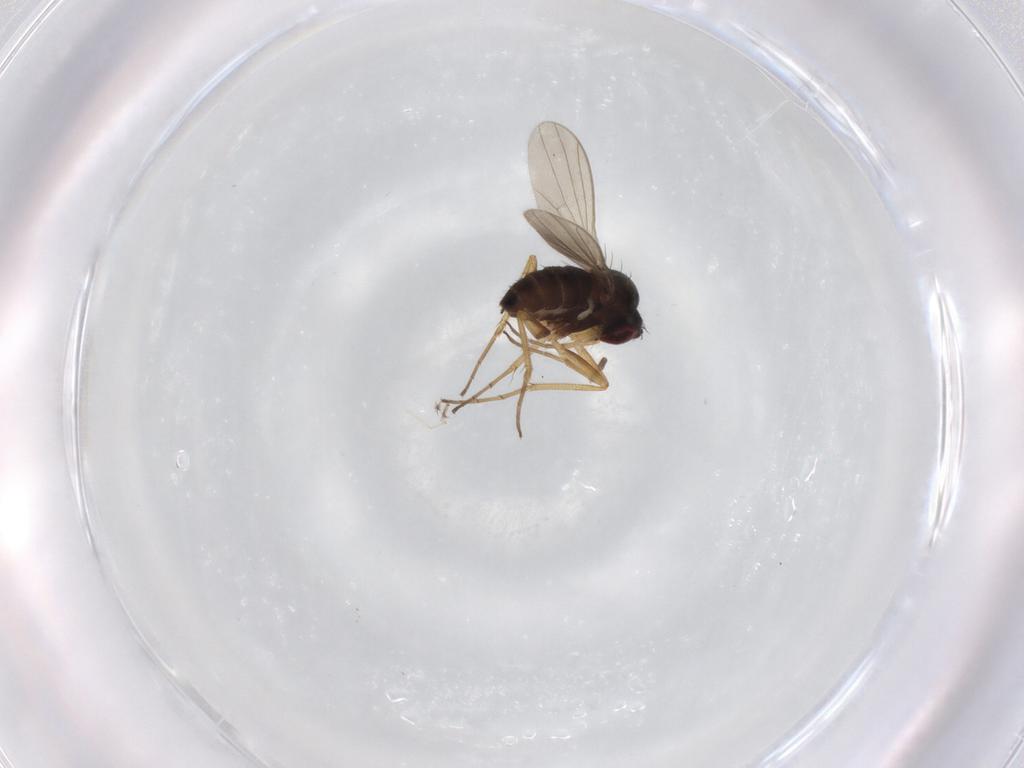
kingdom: Animalia
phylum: Arthropoda
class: Insecta
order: Diptera
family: Dolichopodidae
